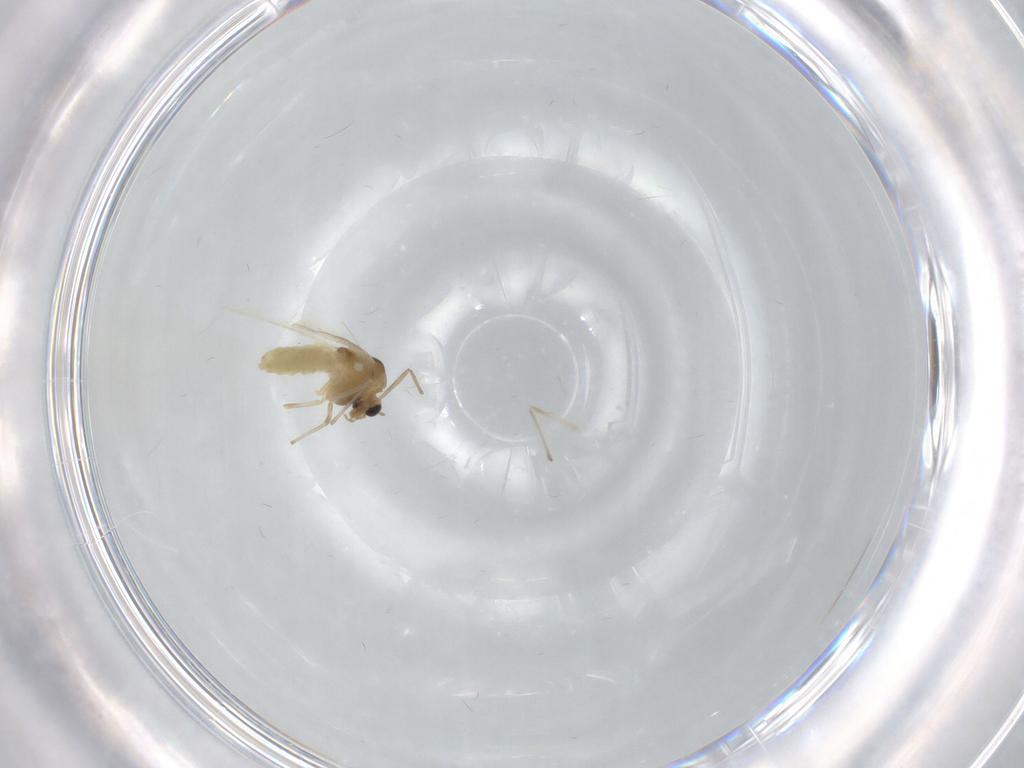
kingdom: Animalia
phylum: Arthropoda
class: Insecta
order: Diptera
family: Chironomidae
